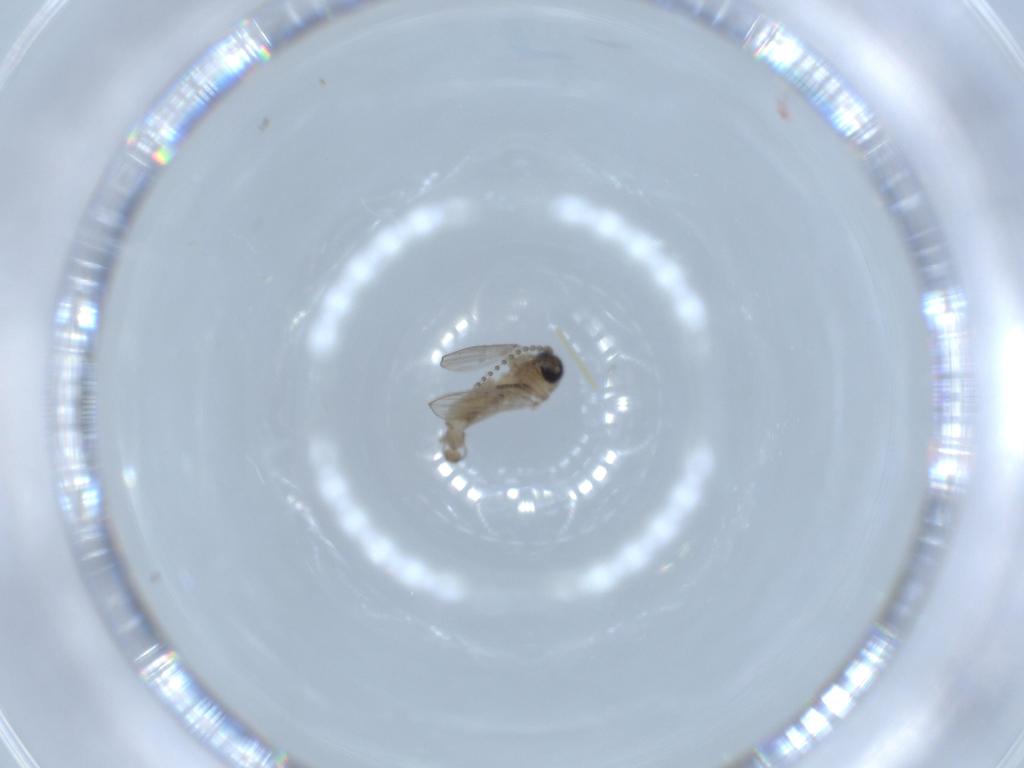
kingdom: Animalia
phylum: Arthropoda
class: Insecta
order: Diptera
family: Psychodidae
